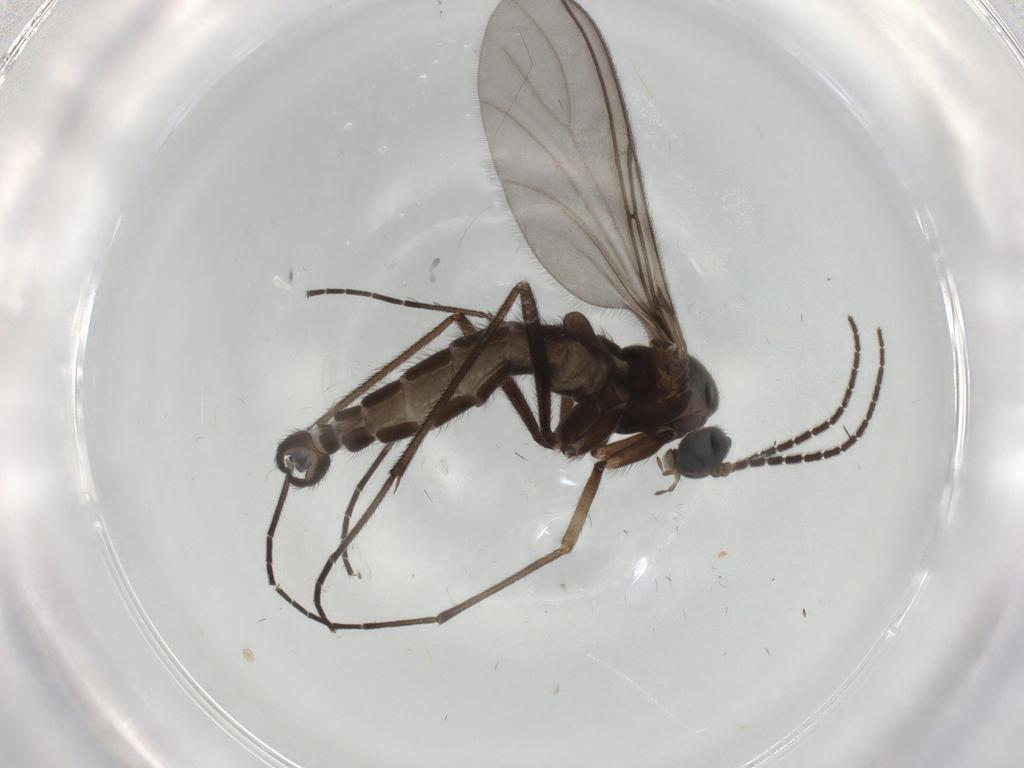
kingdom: Animalia
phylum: Arthropoda
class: Insecta
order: Diptera
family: Sciaridae
